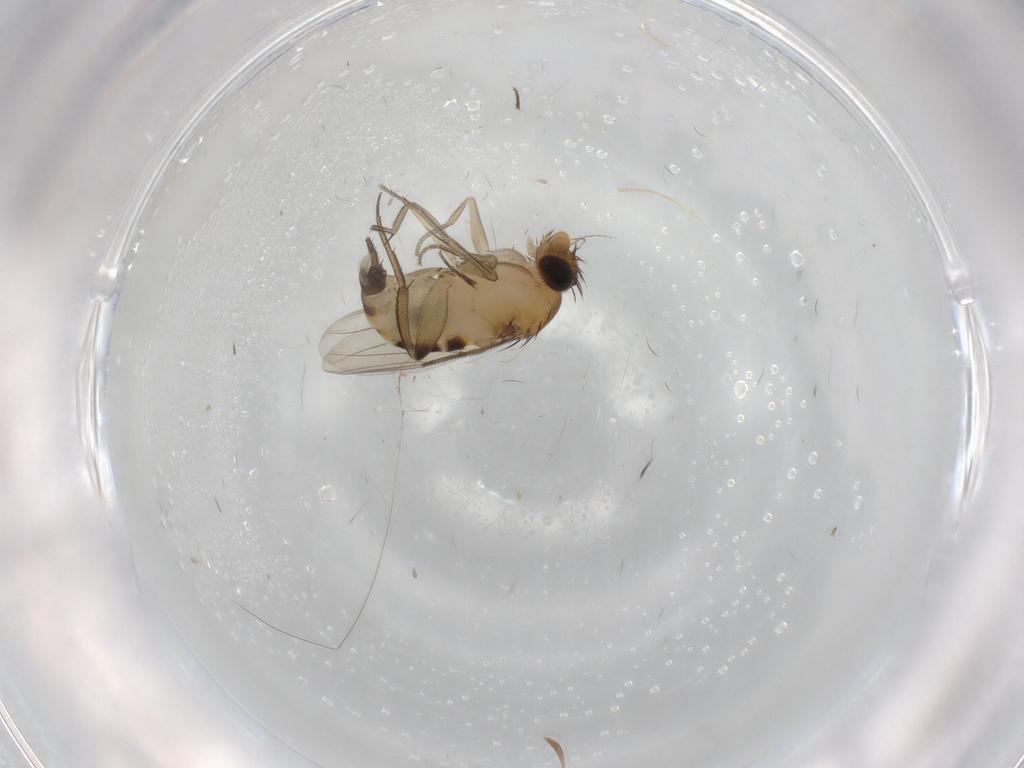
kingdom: Animalia
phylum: Arthropoda
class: Insecta
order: Diptera
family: Phoridae
